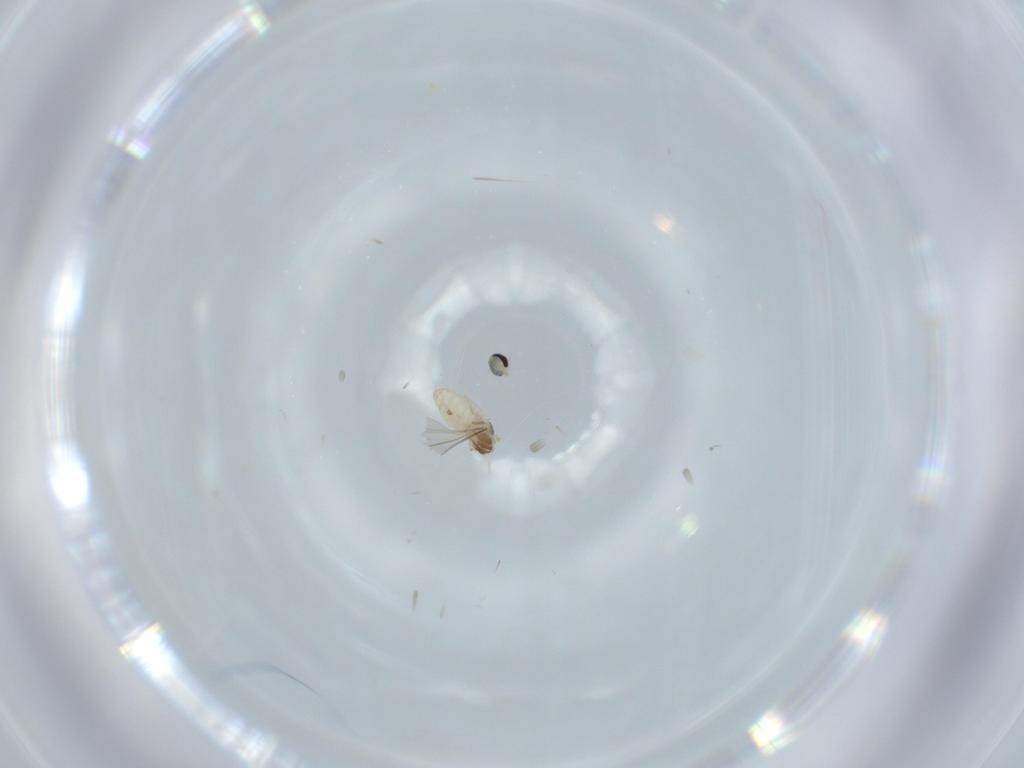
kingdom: Animalia
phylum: Arthropoda
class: Insecta
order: Diptera
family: Cecidomyiidae
